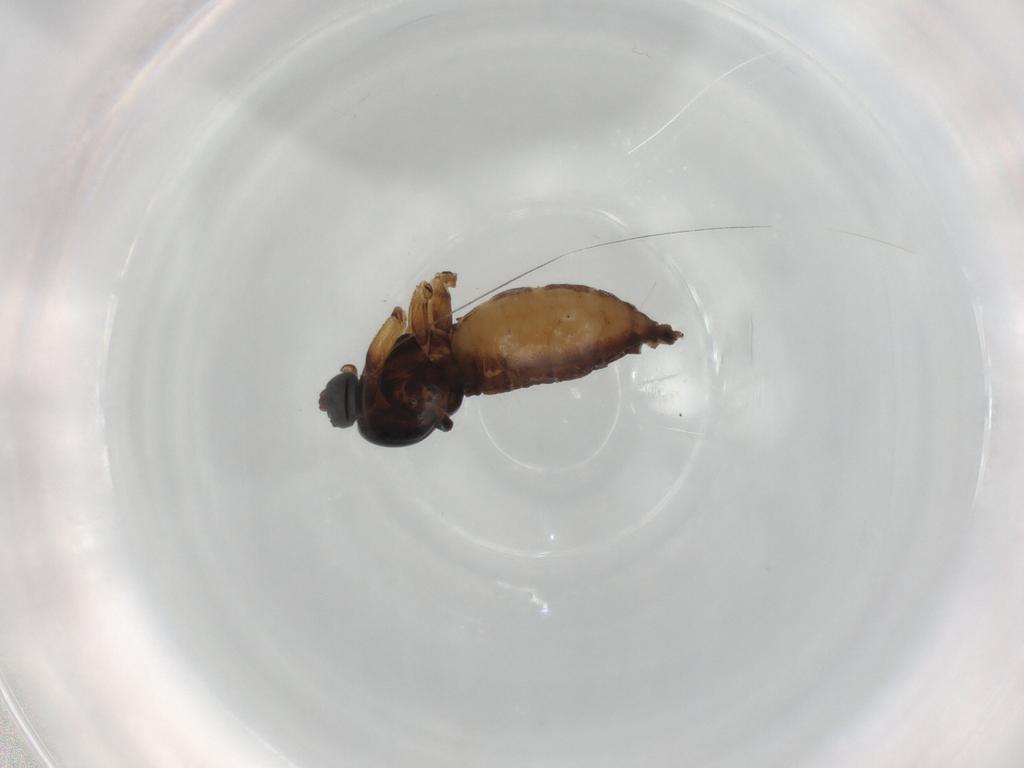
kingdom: Animalia
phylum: Arthropoda
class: Insecta
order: Diptera
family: Sciaridae
